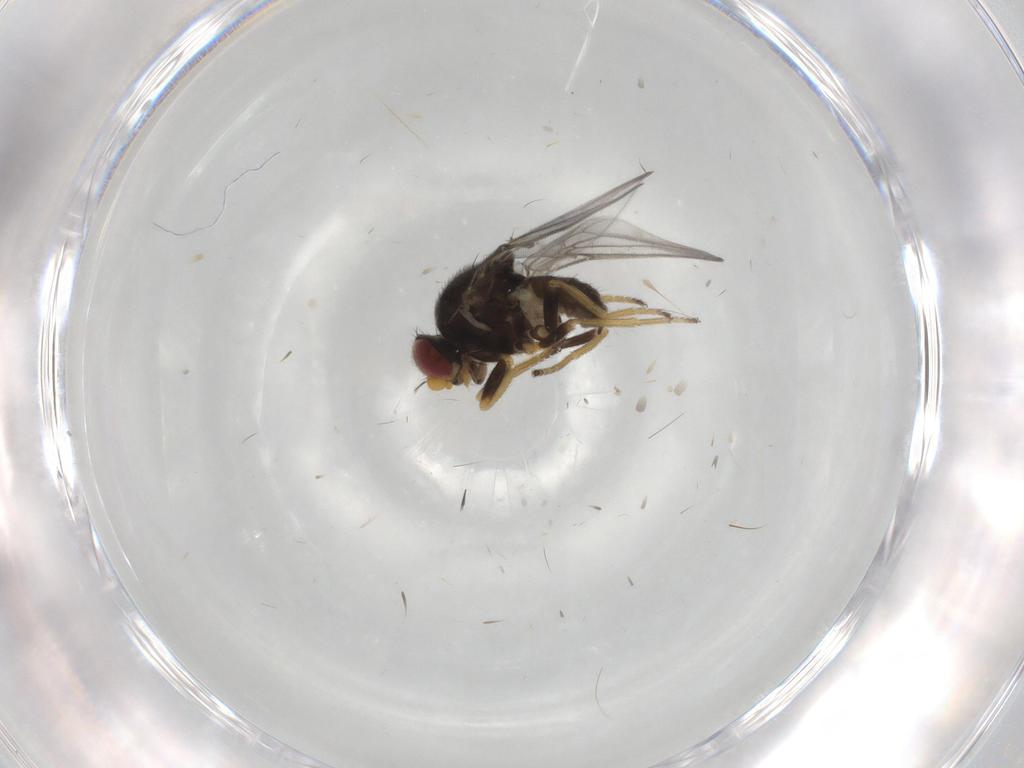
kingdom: Animalia
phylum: Arthropoda
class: Insecta
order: Diptera
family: Chloropidae
